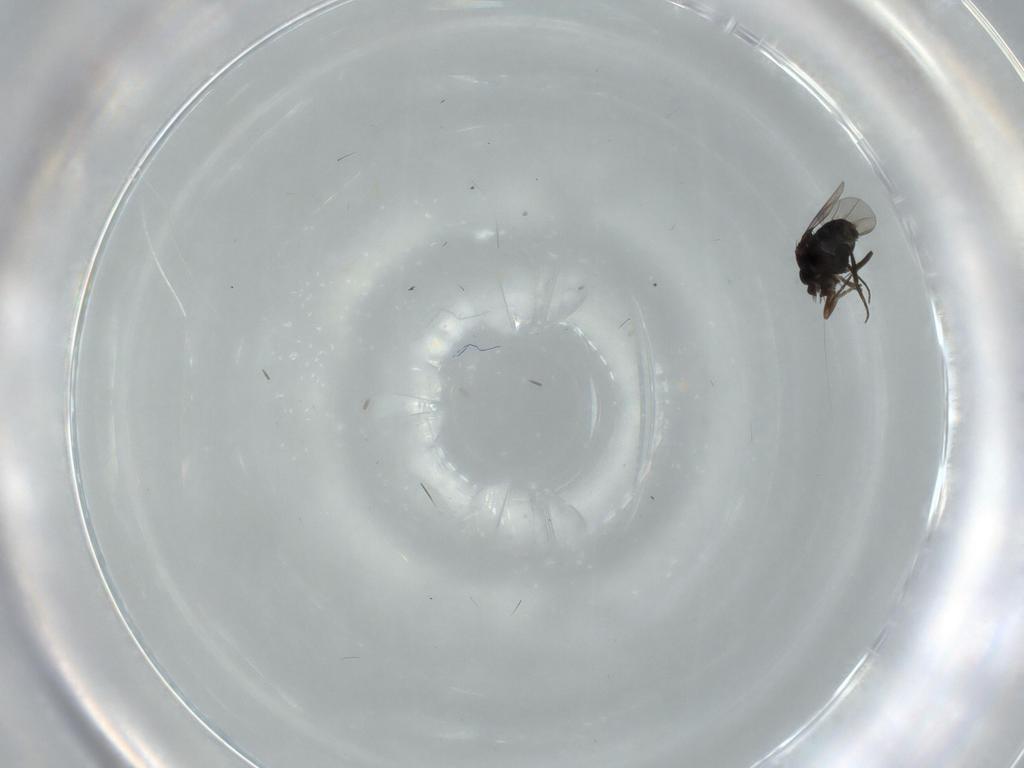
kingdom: Animalia
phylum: Arthropoda
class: Insecta
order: Diptera
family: Phoridae
